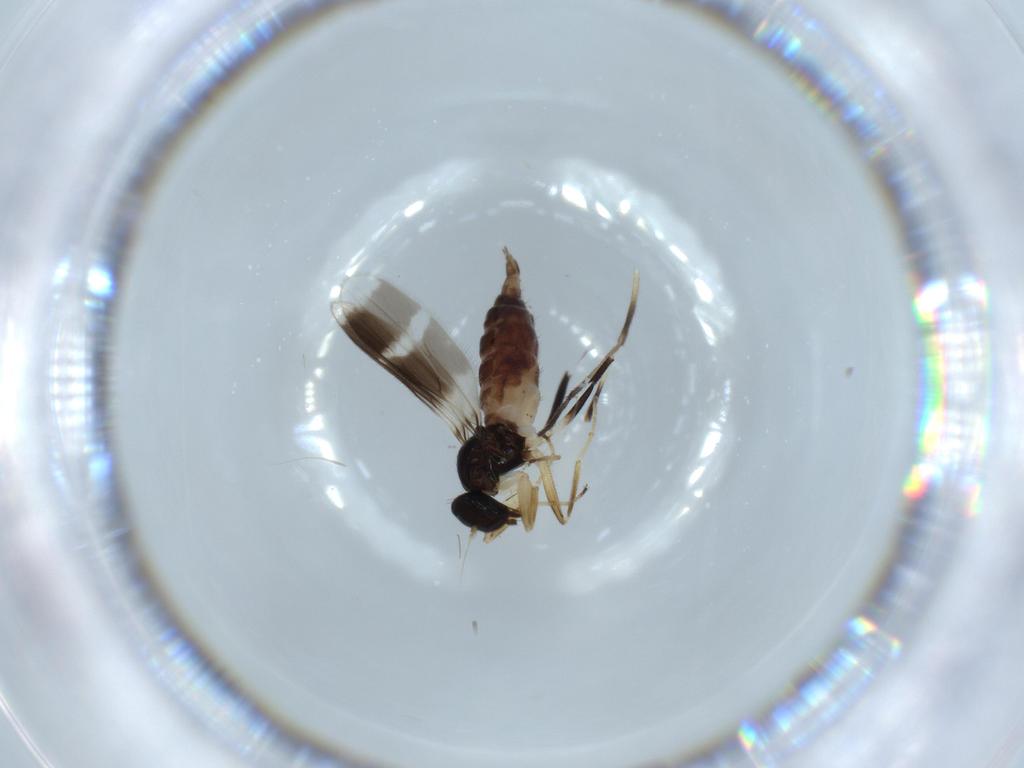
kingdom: Animalia
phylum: Arthropoda
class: Insecta
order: Diptera
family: Hybotidae
